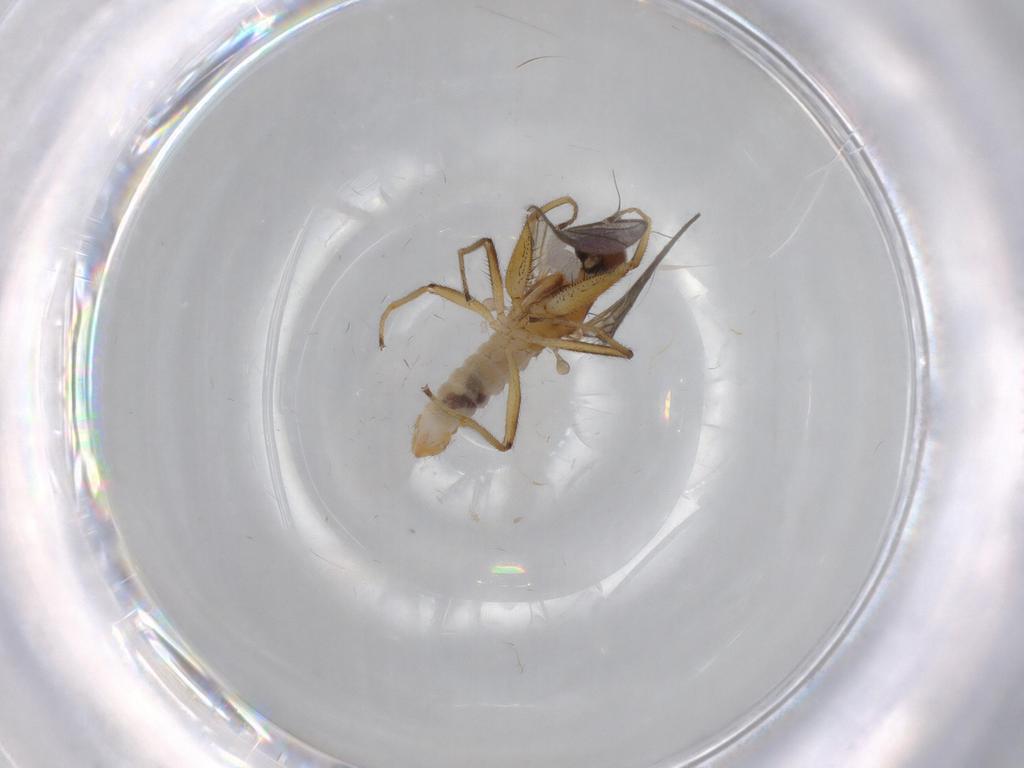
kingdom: Animalia
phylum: Arthropoda
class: Insecta
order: Diptera
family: Empididae
